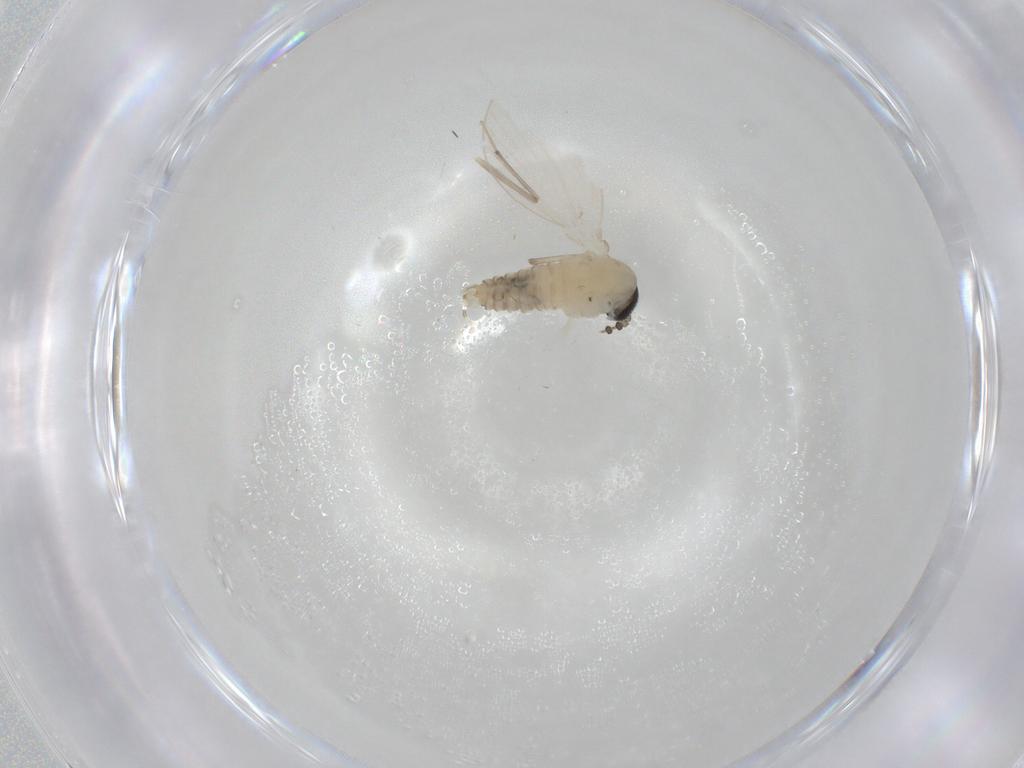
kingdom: Animalia
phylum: Arthropoda
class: Insecta
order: Diptera
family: Psychodidae
